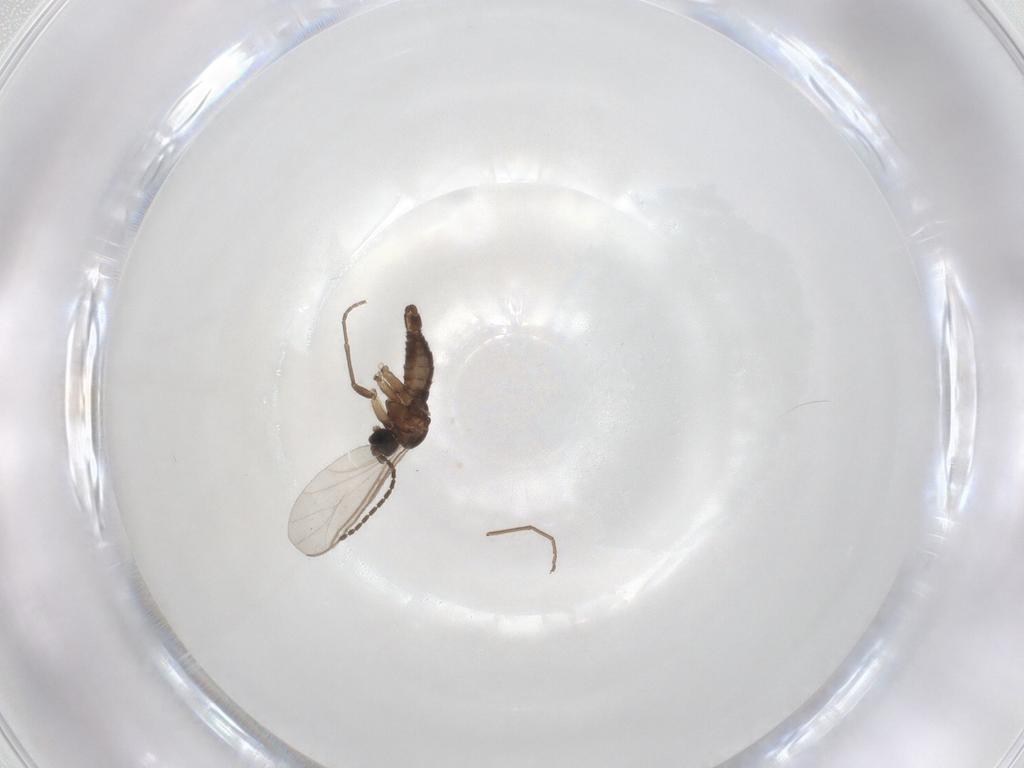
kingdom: Animalia
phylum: Arthropoda
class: Insecta
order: Diptera
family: Sciaridae
